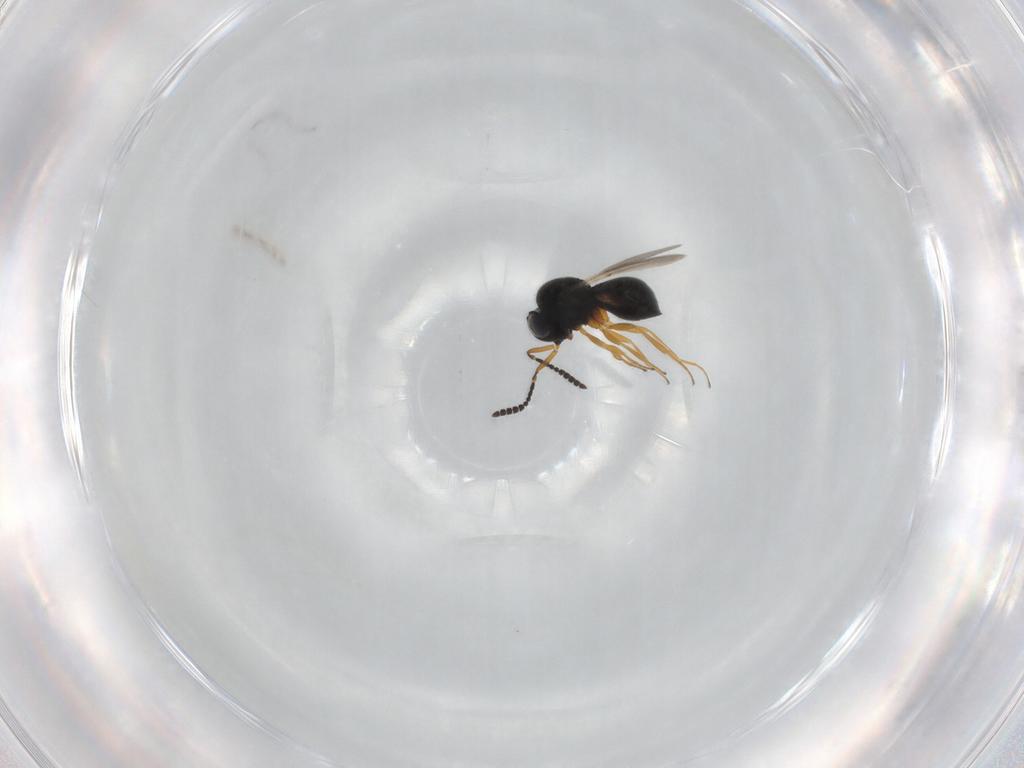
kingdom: Animalia
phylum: Arthropoda
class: Insecta
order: Hymenoptera
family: Scelionidae
